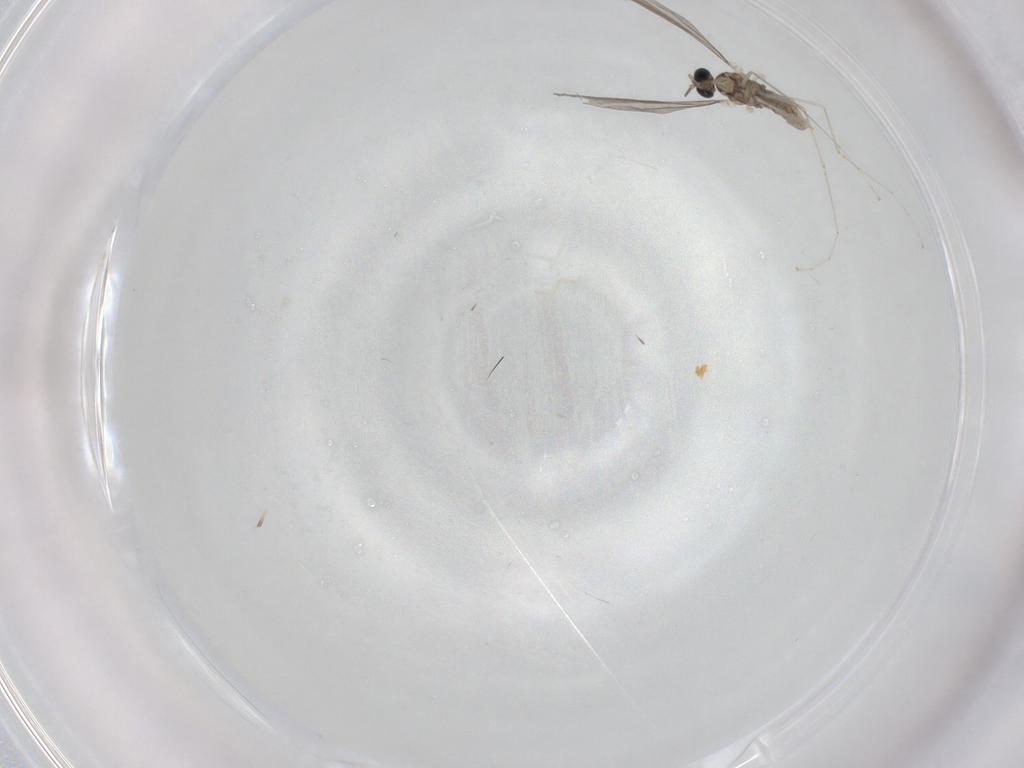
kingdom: Animalia
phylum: Arthropoda
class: Insecta
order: Diptera
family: Cecidomyiidae
